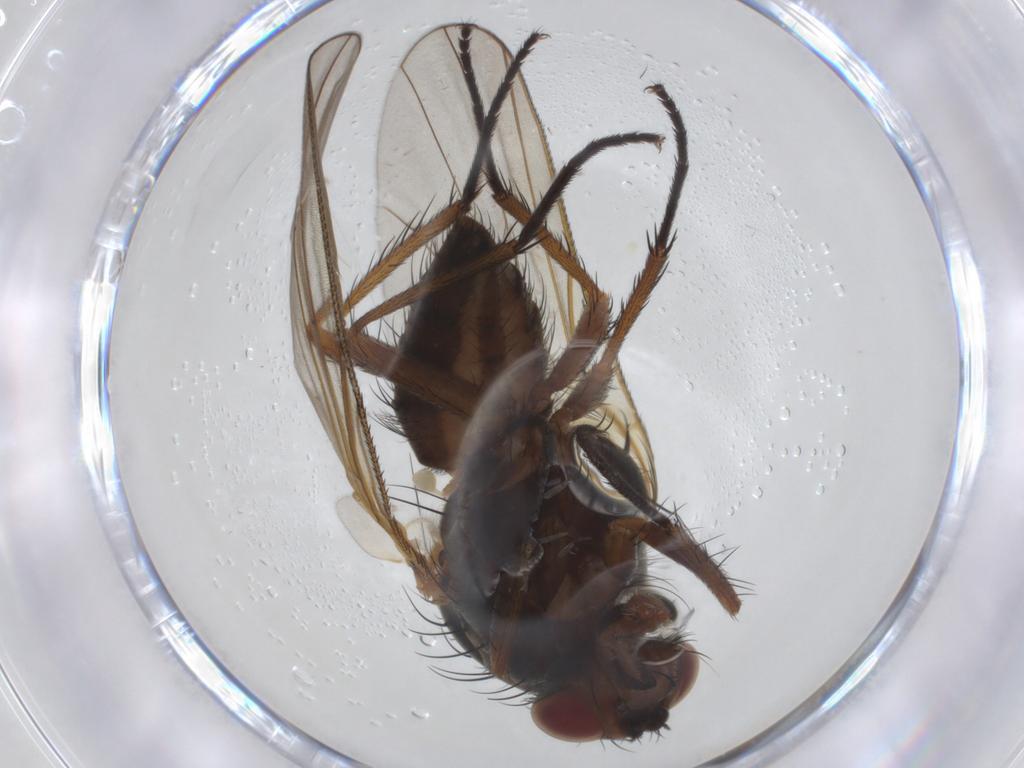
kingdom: Animalia
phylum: Arthropoda
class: Insecta
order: Diptera
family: Anthomyiidae
